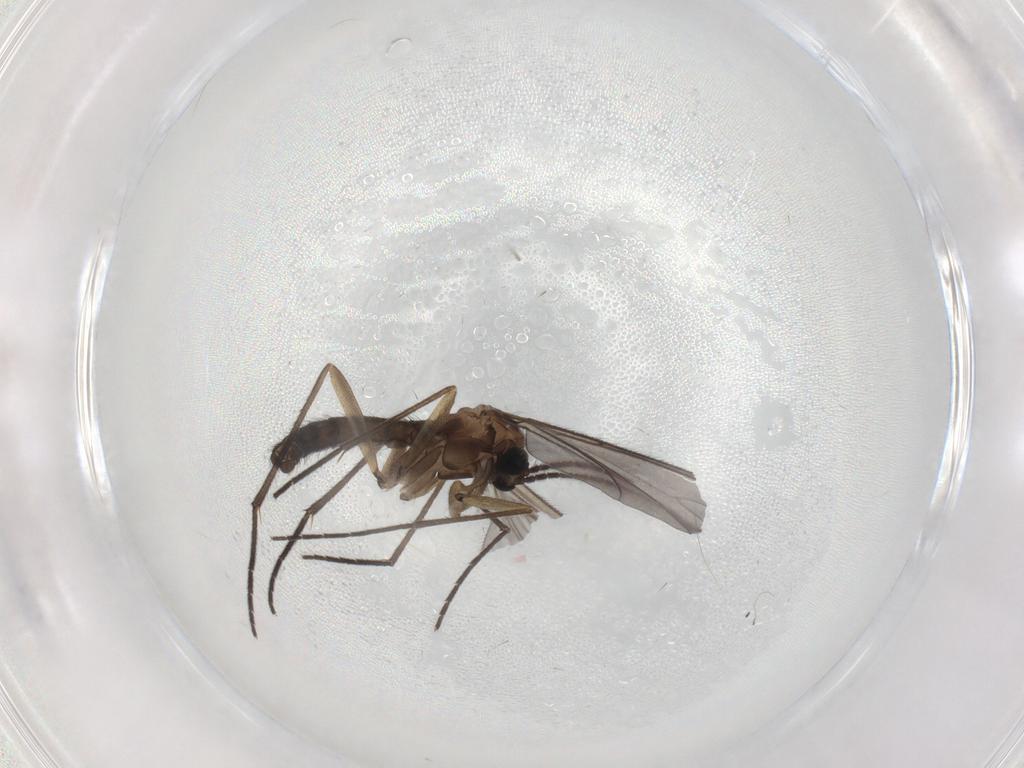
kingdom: Animalia
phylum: Arthropoda
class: Insecta
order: Diptera
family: Sciaridae
